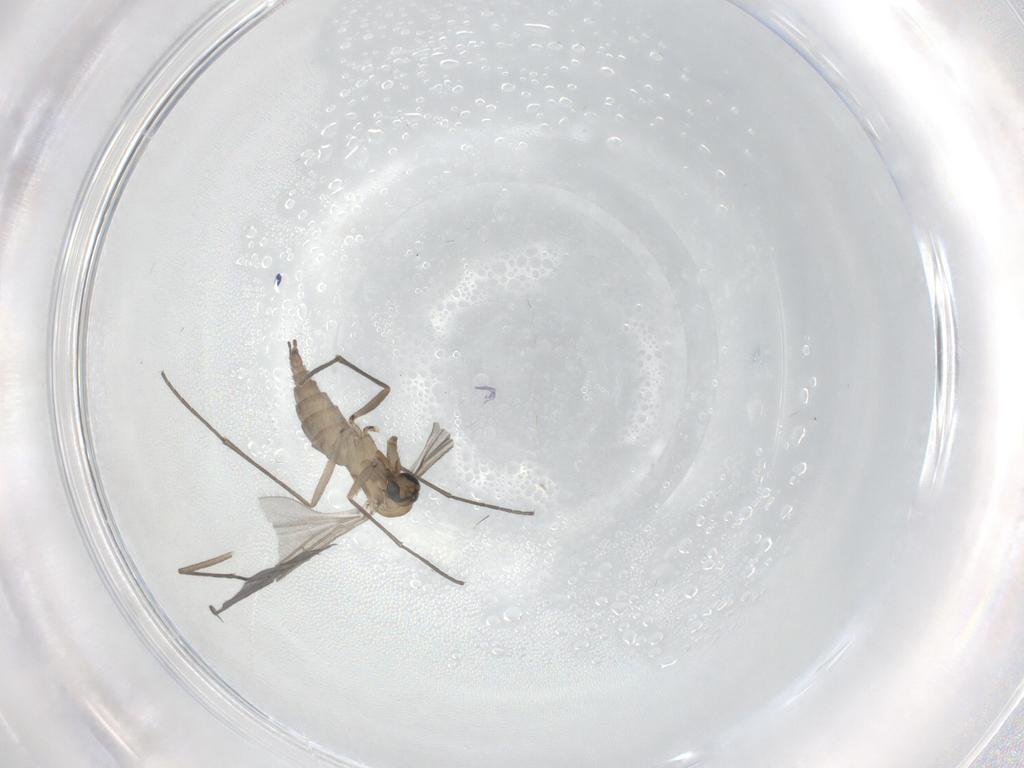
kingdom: Animalia
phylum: Arthropoda
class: Insecta
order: Diptera
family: Sciaridae
